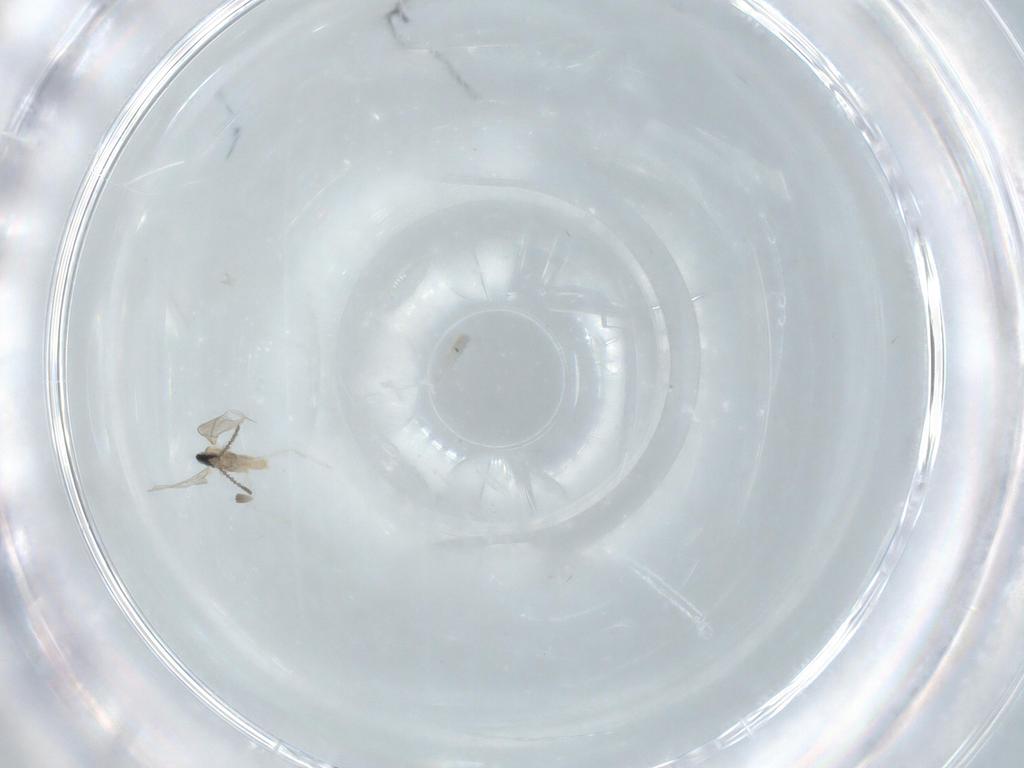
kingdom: Animalia
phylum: Arthropoda
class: Insecta
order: Diptera
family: Cecidomyiidae
